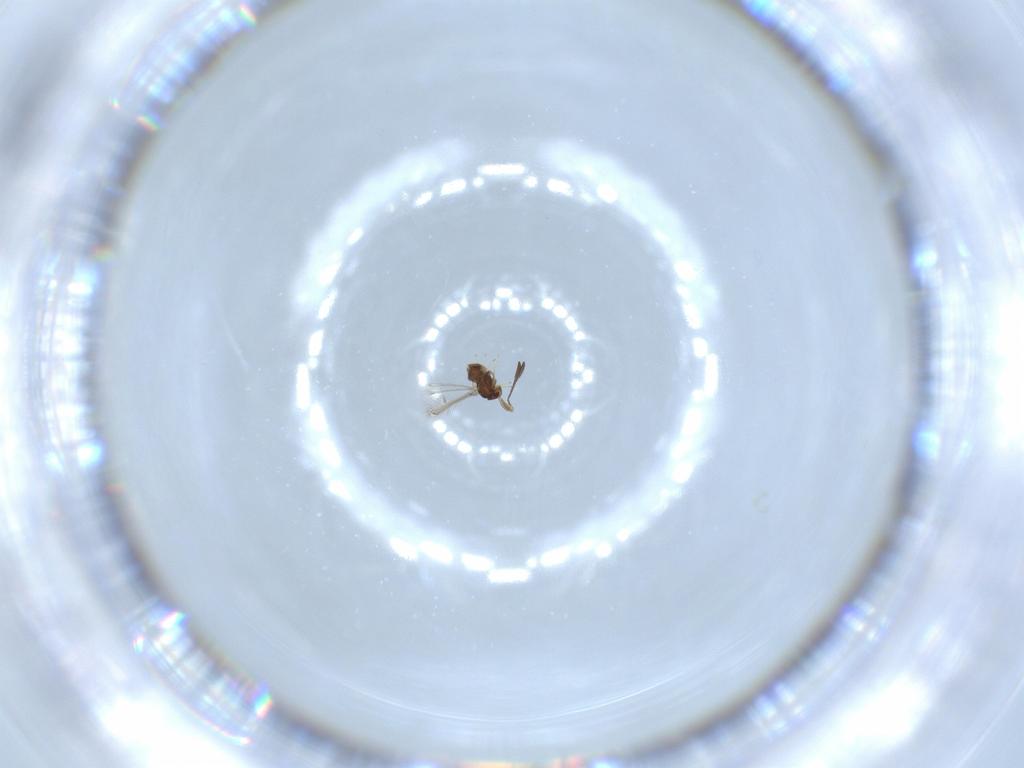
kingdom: Animalia
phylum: Arthropoda
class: Insecta
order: Hymenoptera
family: Mymaridae
